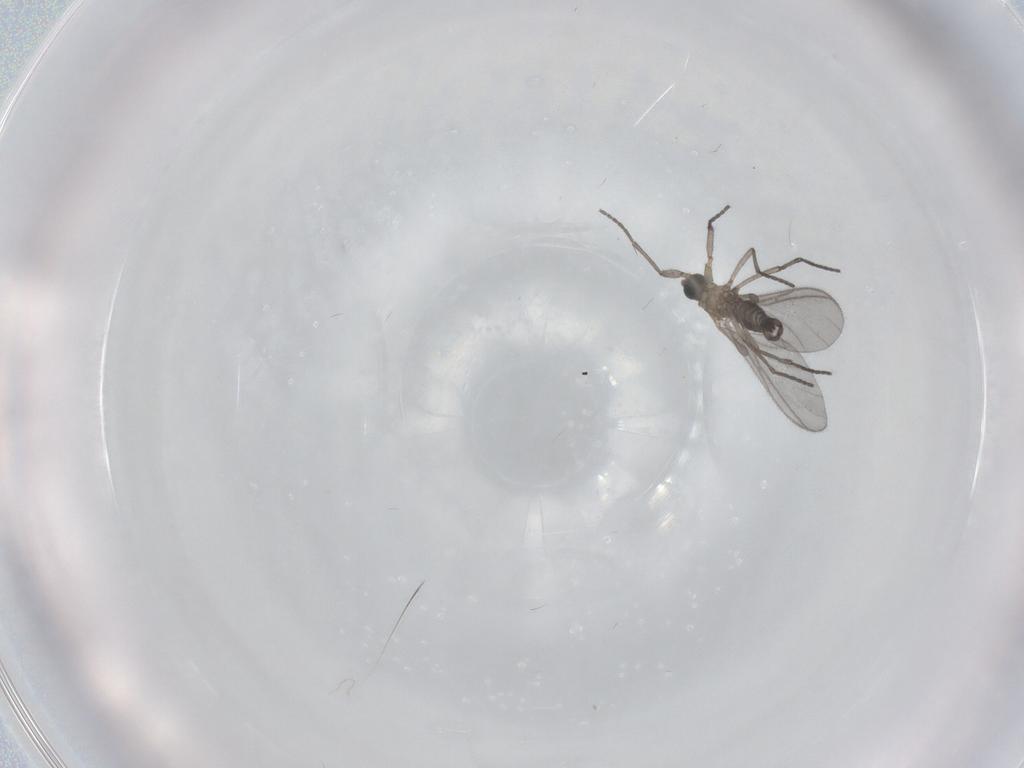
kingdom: Animalia
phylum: Arthropoda
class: Insecta
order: Diptera
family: Sciaridae
